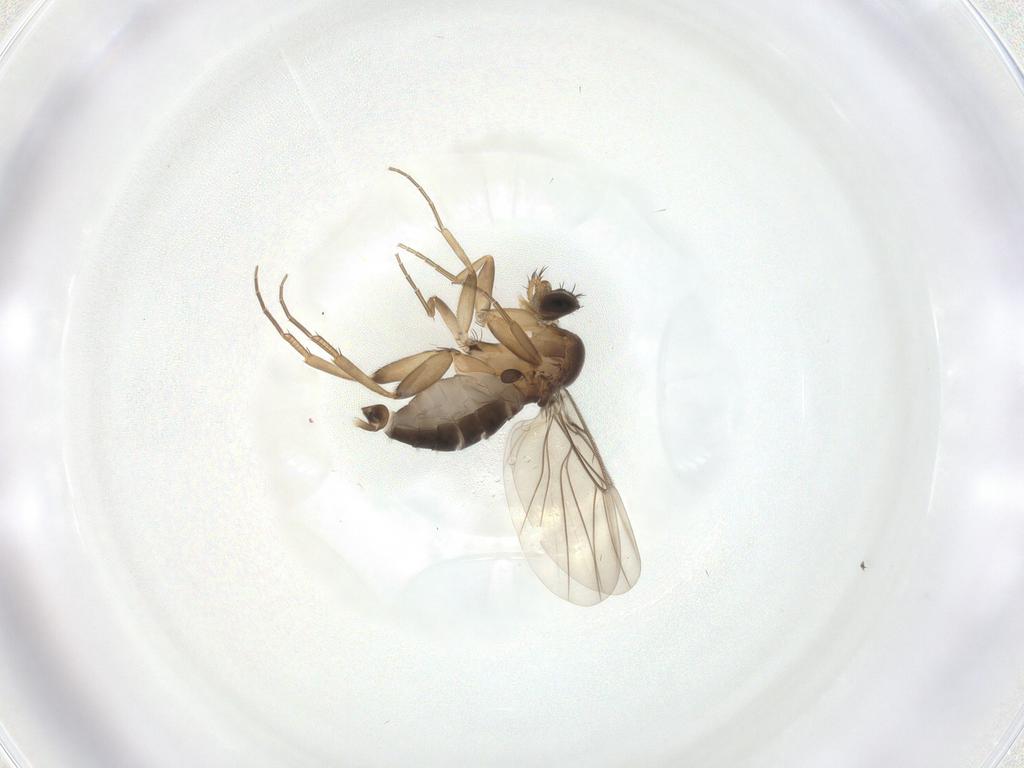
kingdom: Animalia
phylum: Arthropoda
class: Insecta
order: Diptera
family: Phoridae
